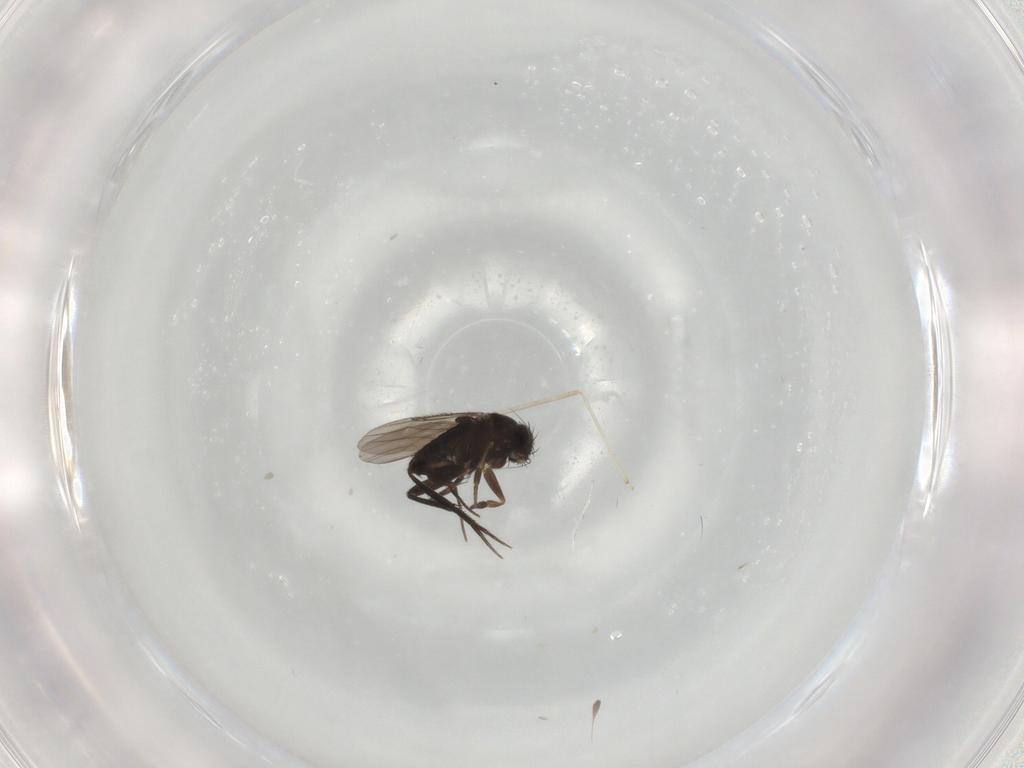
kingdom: Animalia
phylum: Arthropoda
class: Insecta
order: Diptera
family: Phoridae
